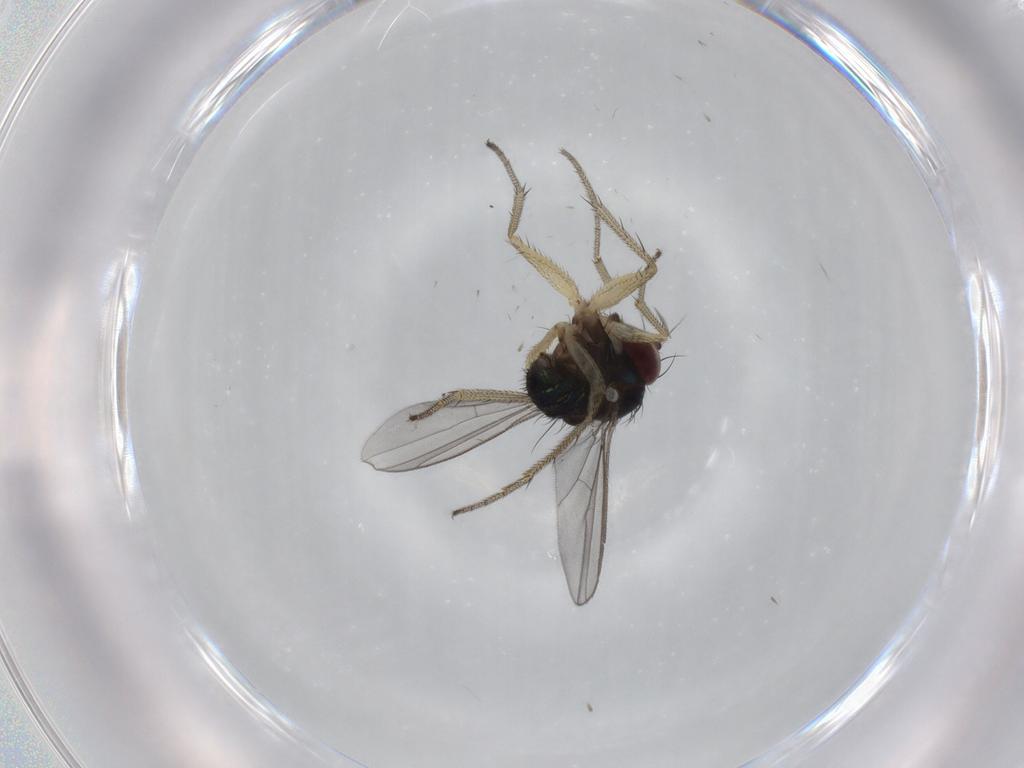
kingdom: Animalia
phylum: Arthropoda
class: Insecta
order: Diptera
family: Dolichopodidae
